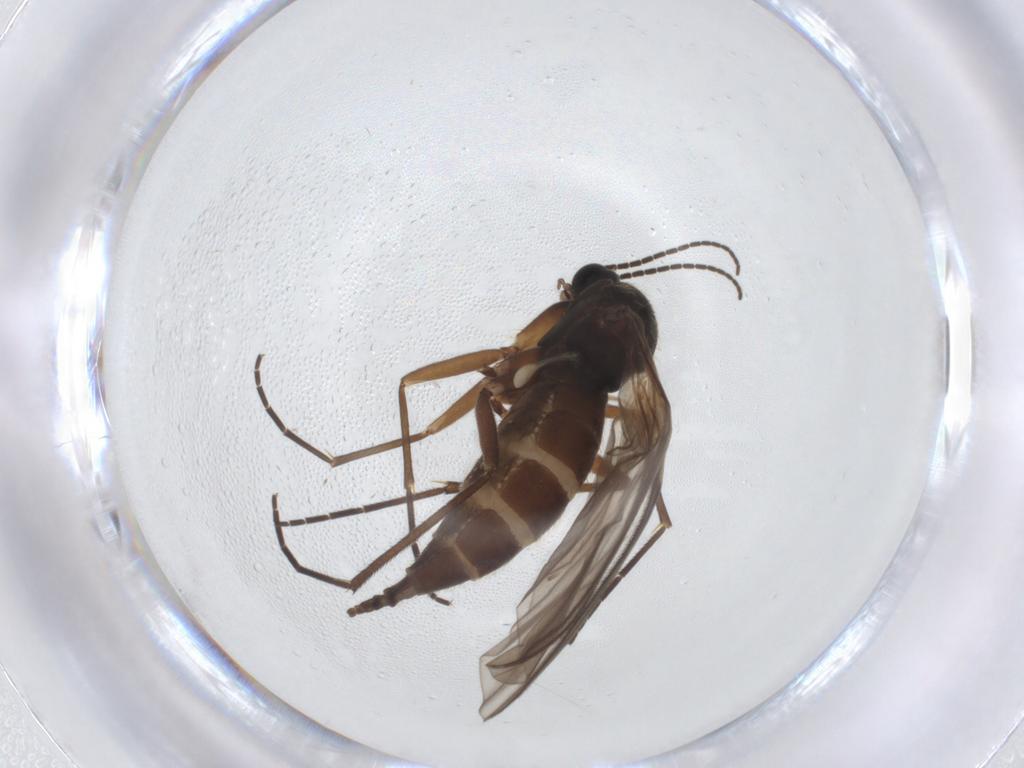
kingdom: Animalia
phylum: Arthropoda
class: Insecta
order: Diptera
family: Sciaridae
